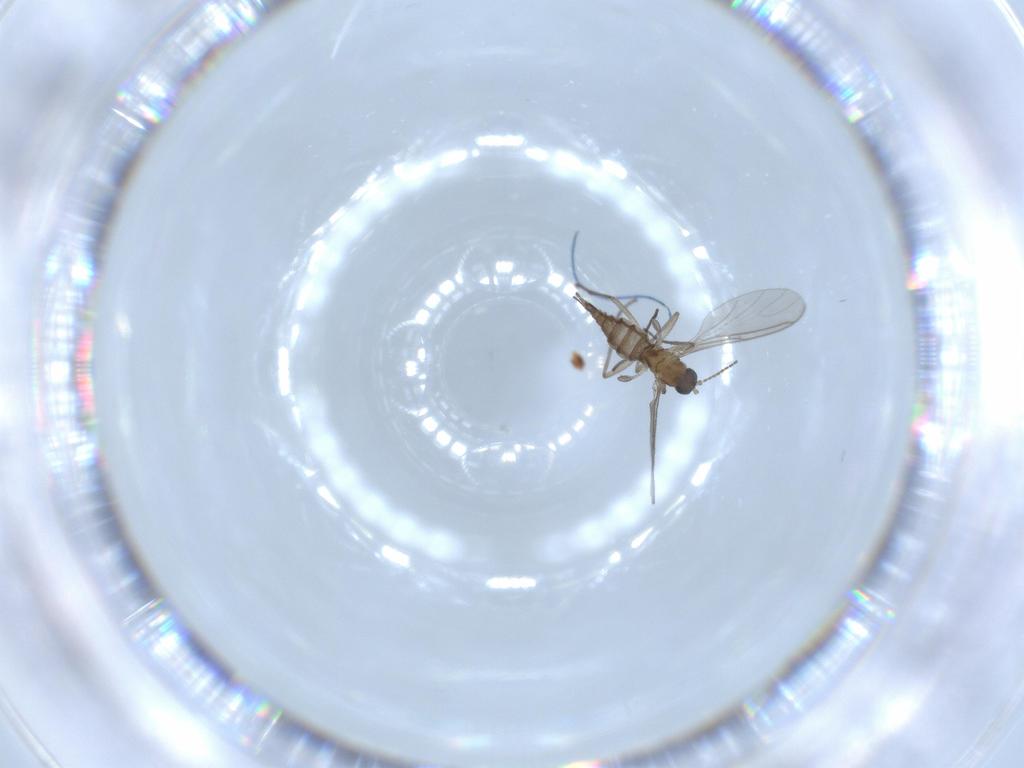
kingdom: Animalia
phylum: Arthropoda
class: Insecta
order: Diptera
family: Sciaridae
